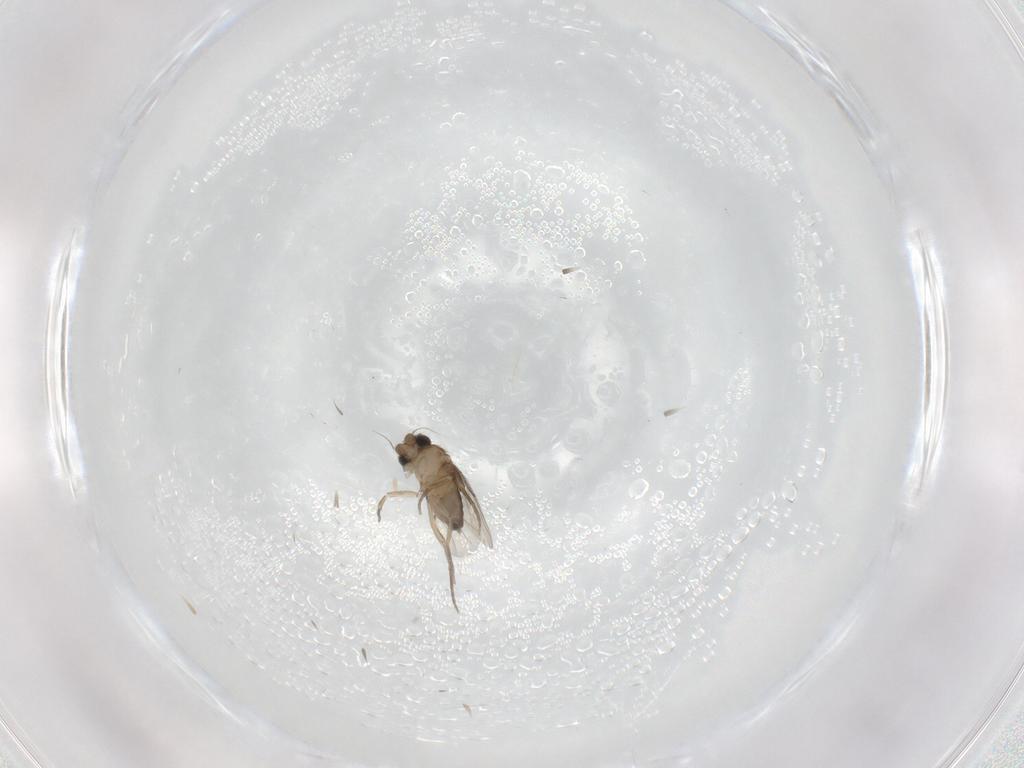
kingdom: Animalia
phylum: Arthropoda
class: Insecta
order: Diptera
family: Phoridae
